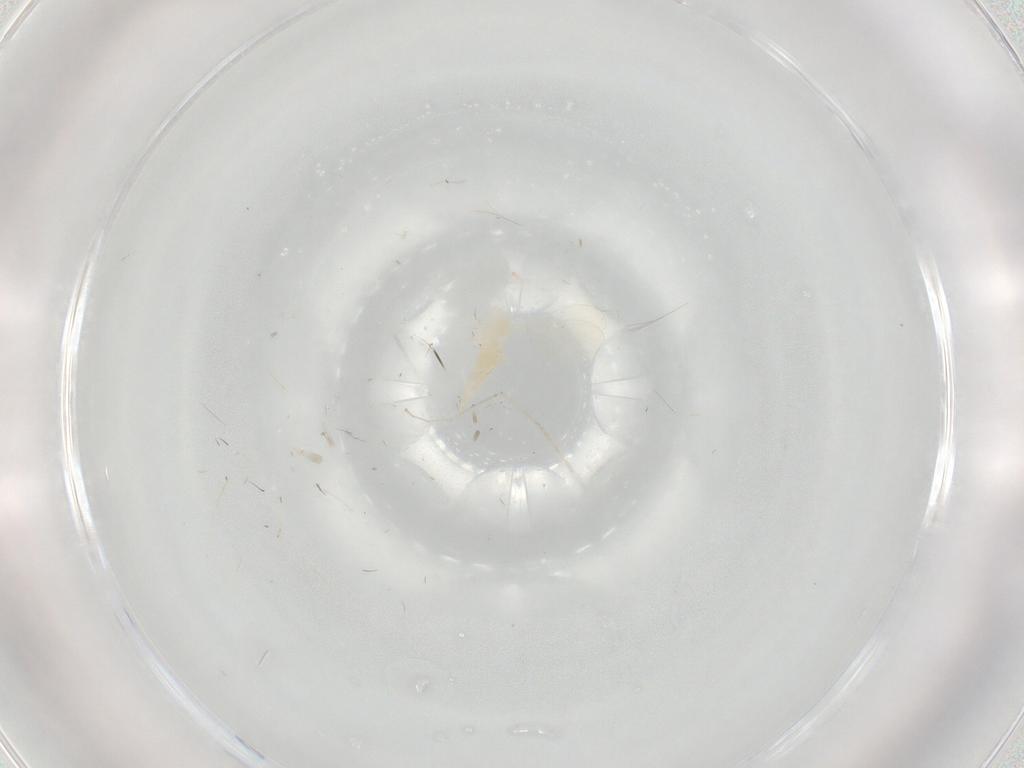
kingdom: Animalia
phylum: Arthropoda
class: Insecta
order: Diptera
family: Cecidomyiidae
